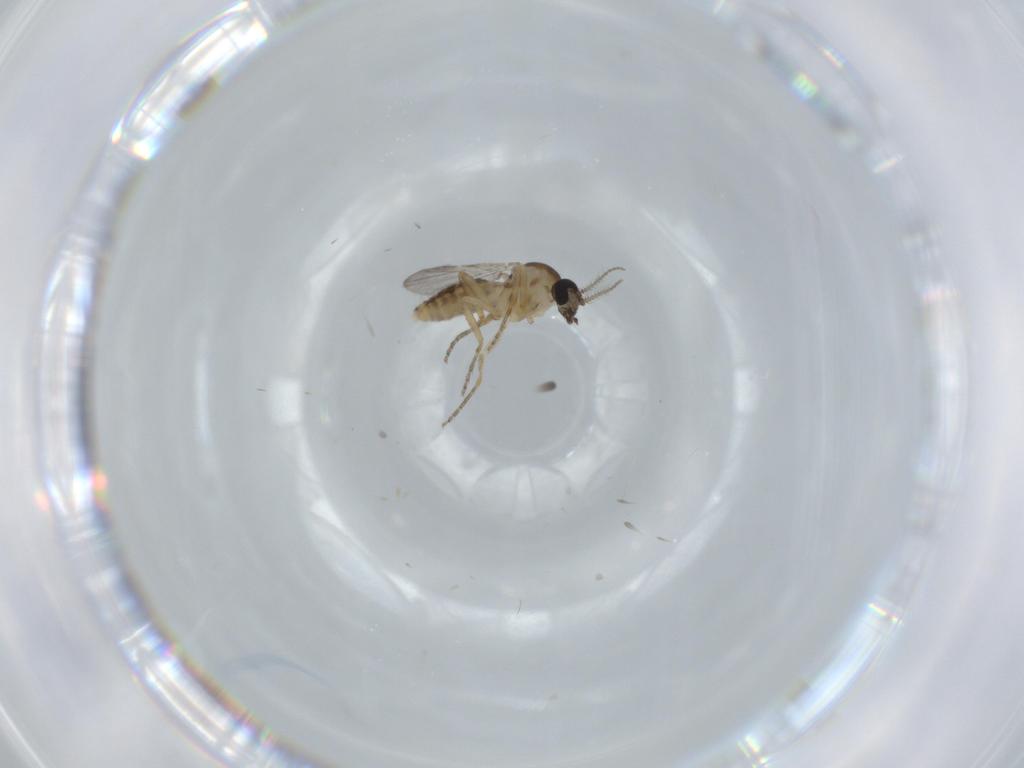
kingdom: Animalia
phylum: Arthropoda
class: Insecta
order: Diptera
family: Ceratopogonidae
